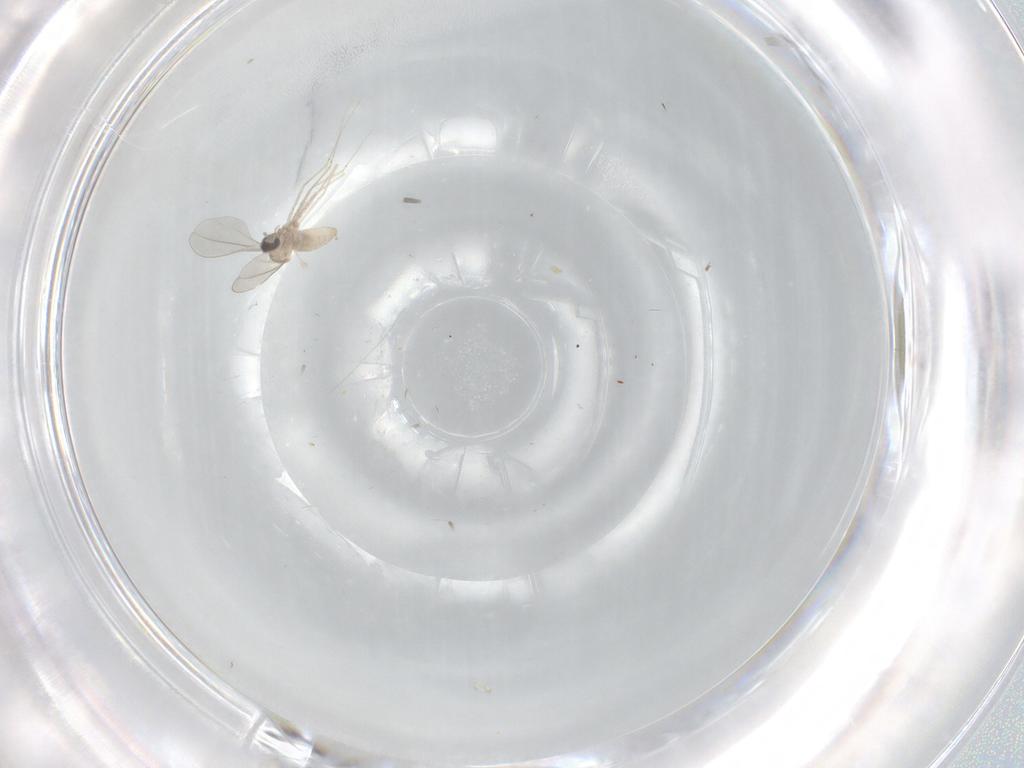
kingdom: Animalia
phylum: Arthropoda
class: Insecta
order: Diptera
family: Cecidomyiidae
